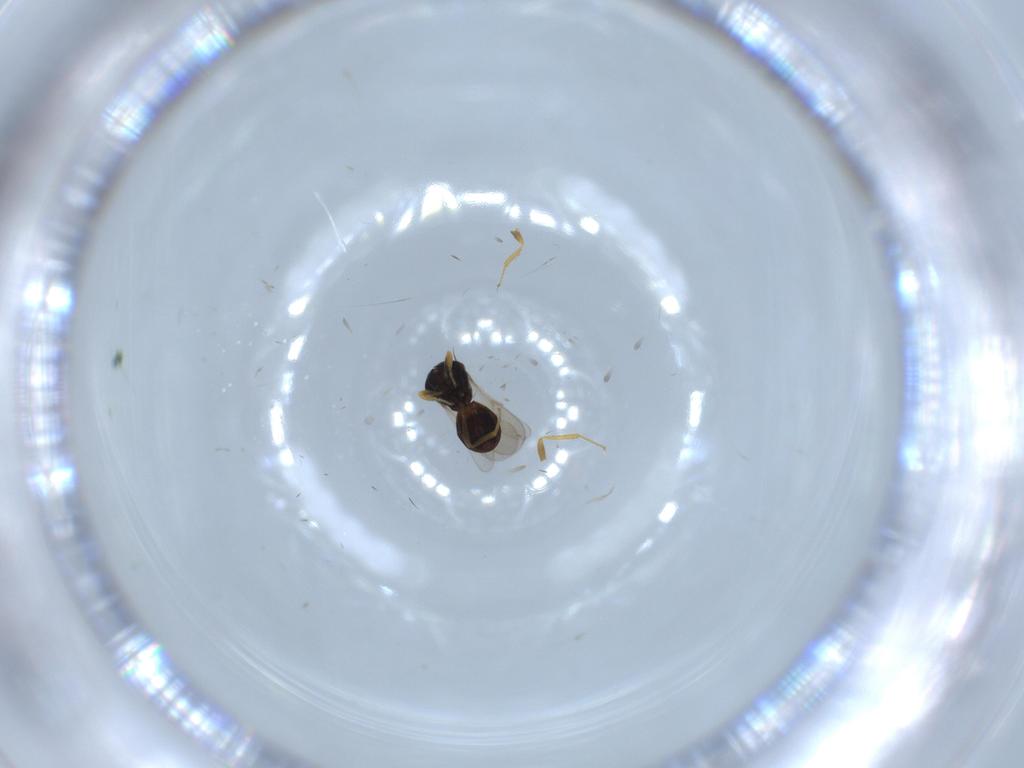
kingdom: Animalia
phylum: Arthropoda
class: Insecta
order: Hymenoptera
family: Scelionidae
